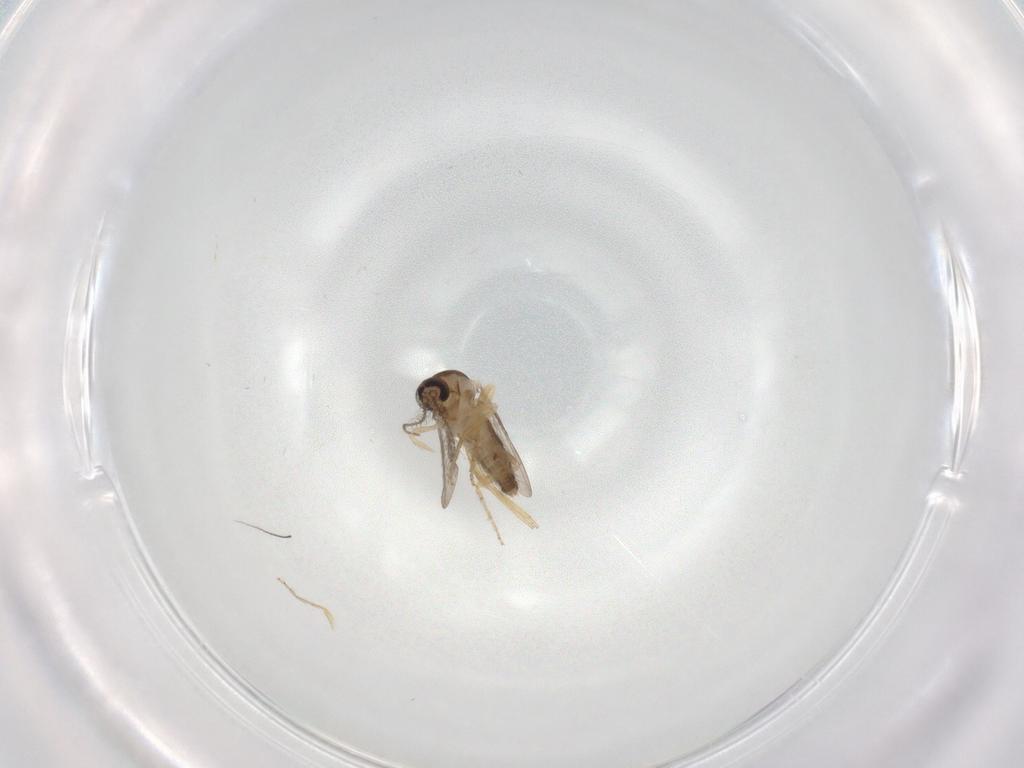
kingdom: Animalia
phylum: Arthropoda
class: Insecta
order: Diptera
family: Ceratopogonidae
